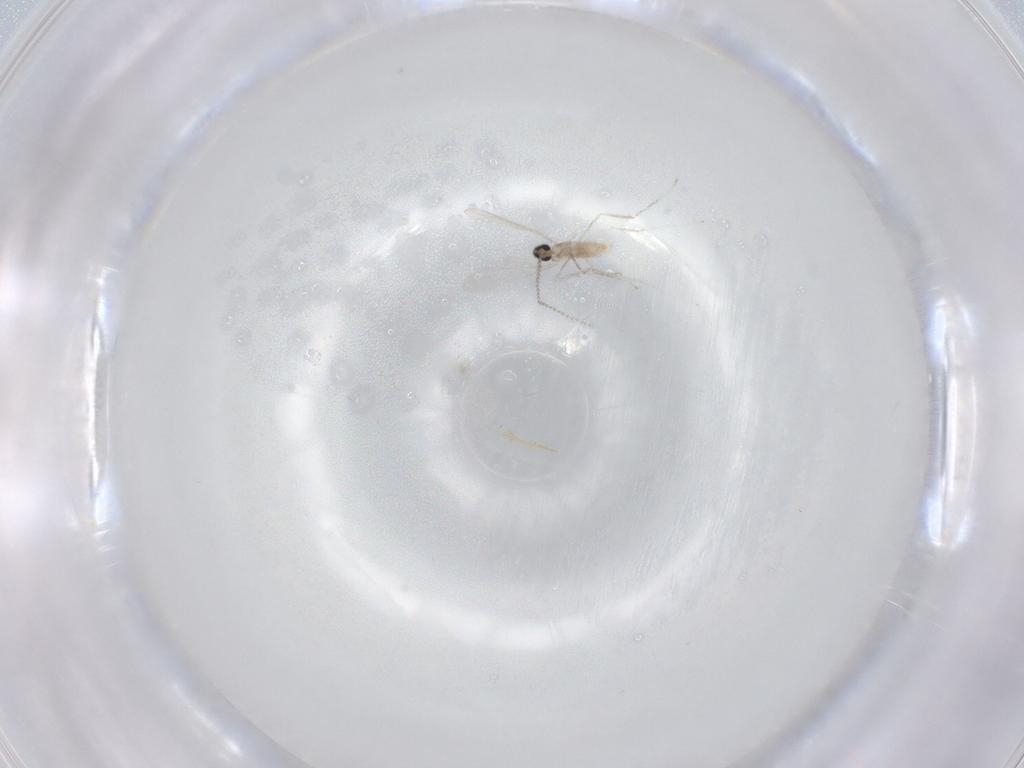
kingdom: Animalia
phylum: Arthropoda
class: Insecta
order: Diptera
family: Cecidomyiidae
